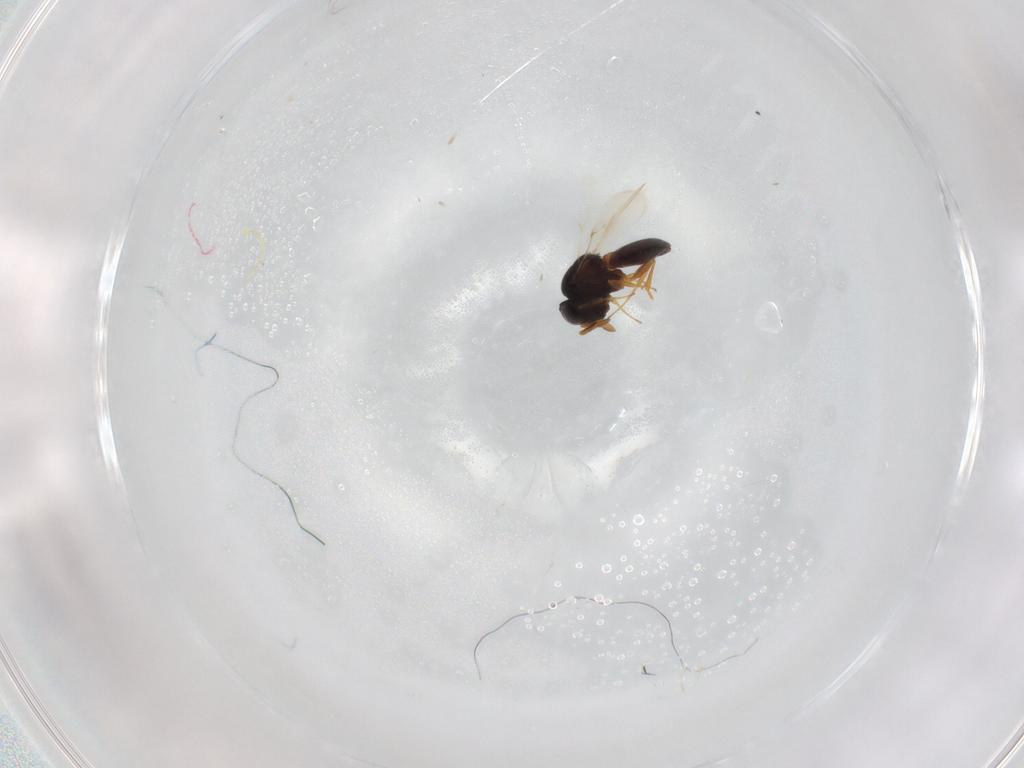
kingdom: Animalia
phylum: Arthropoda
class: Insecta
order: Hymenoptera
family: Scelionidae
